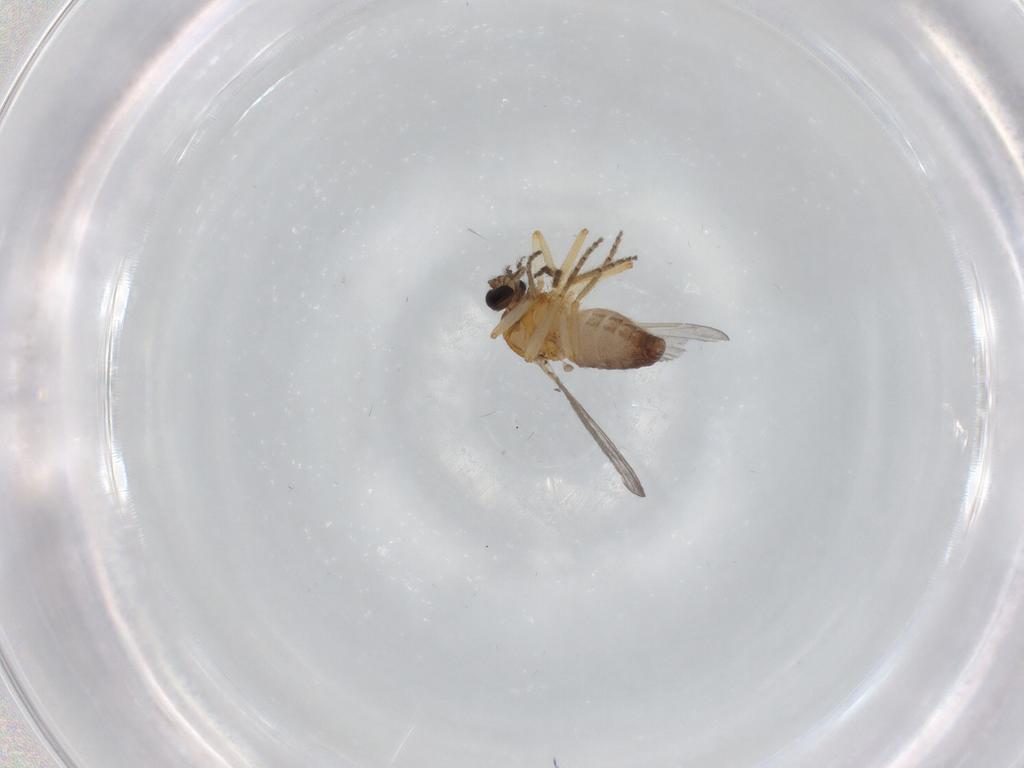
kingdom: Animalia
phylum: Arthropoda
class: Insecta
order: Diptera
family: Ceratopogonidae
